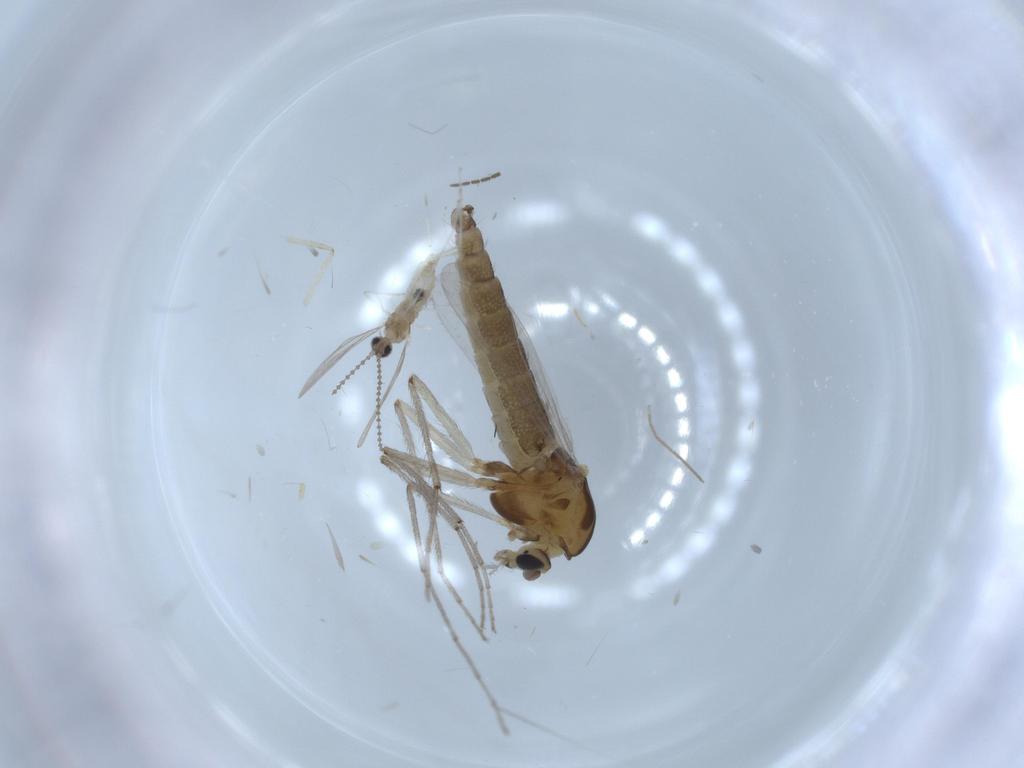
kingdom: Animalia
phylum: Arthropoda
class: Insecta
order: Diptera
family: Chironomidae
